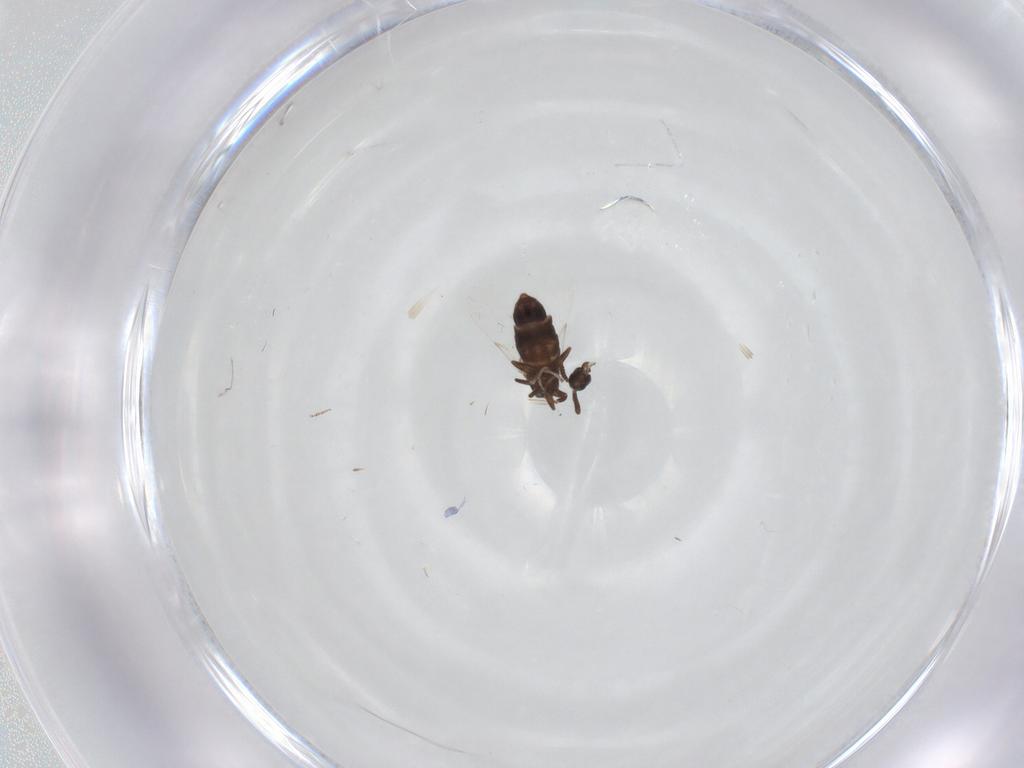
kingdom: Animalia
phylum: Arthropoda
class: Insecta
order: Diptera
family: Scatopsidae
